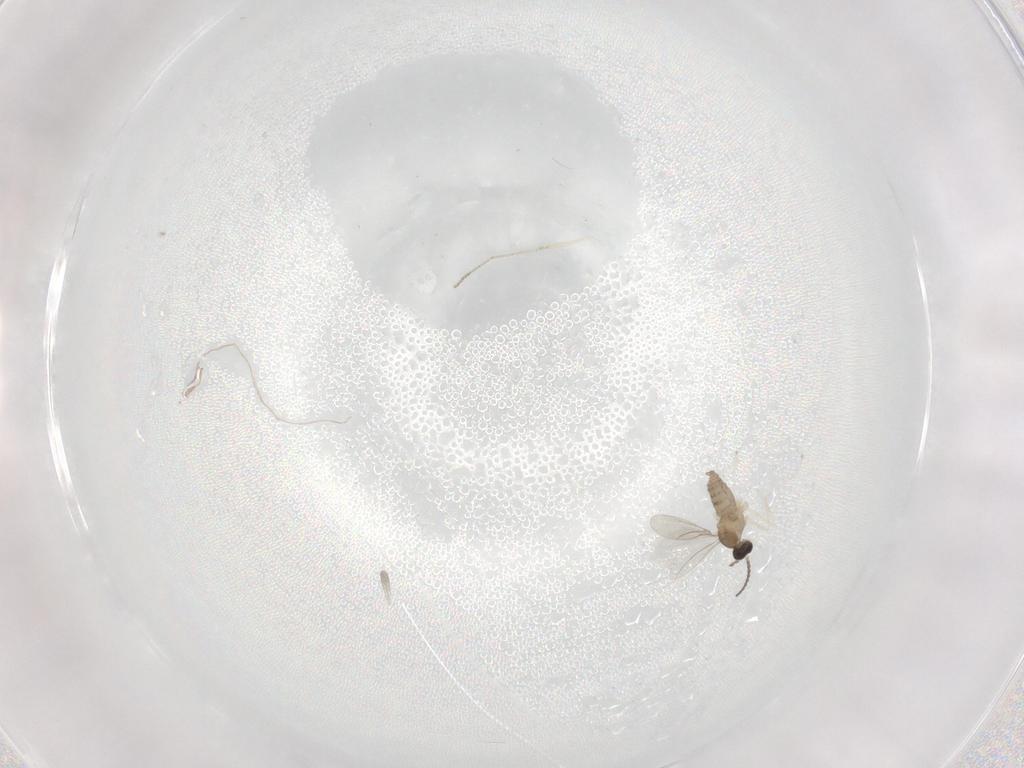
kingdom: Animalia
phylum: Arthropoda
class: Insecta
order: Diptera
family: Cecidomyiidae
